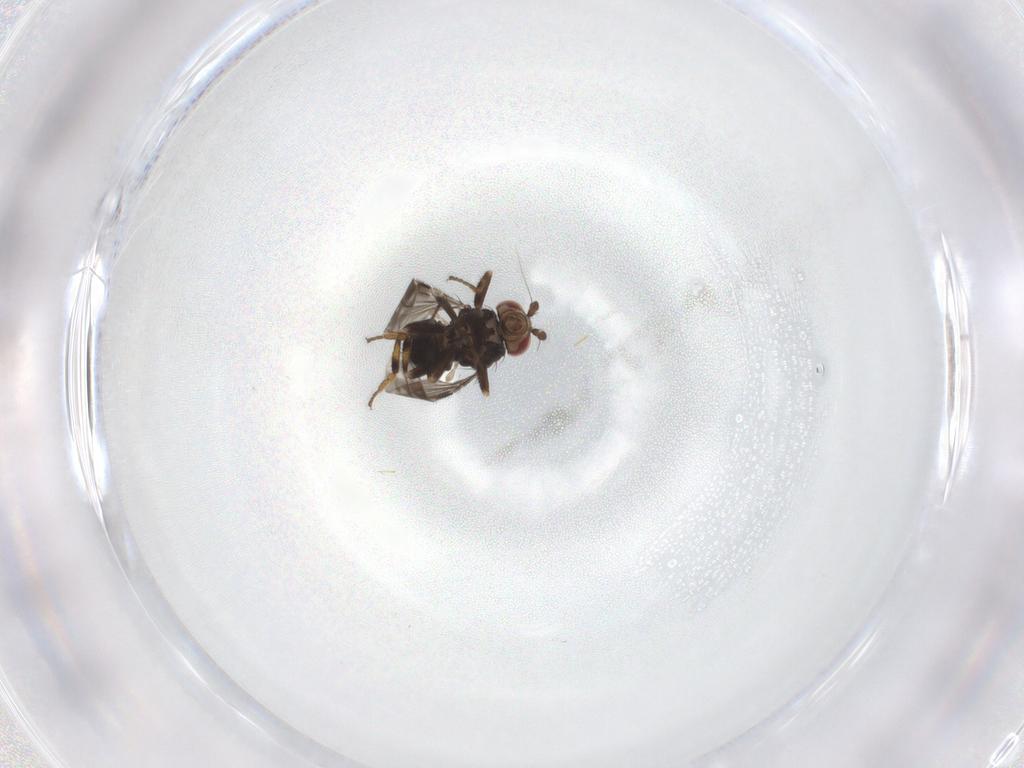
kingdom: Animalia
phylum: Arthropoda
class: Insecta
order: Diptera
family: Sphaeroceridae
